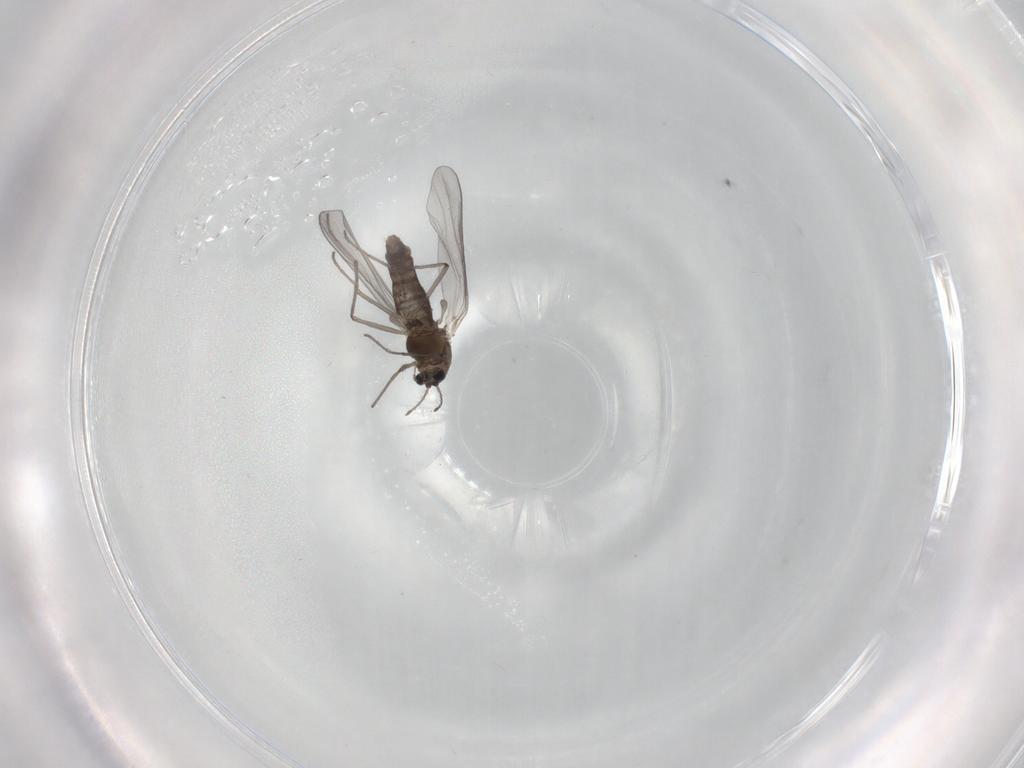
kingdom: Animalia
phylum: Arthropoda
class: Insecta
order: Diptera
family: Chironomidae
